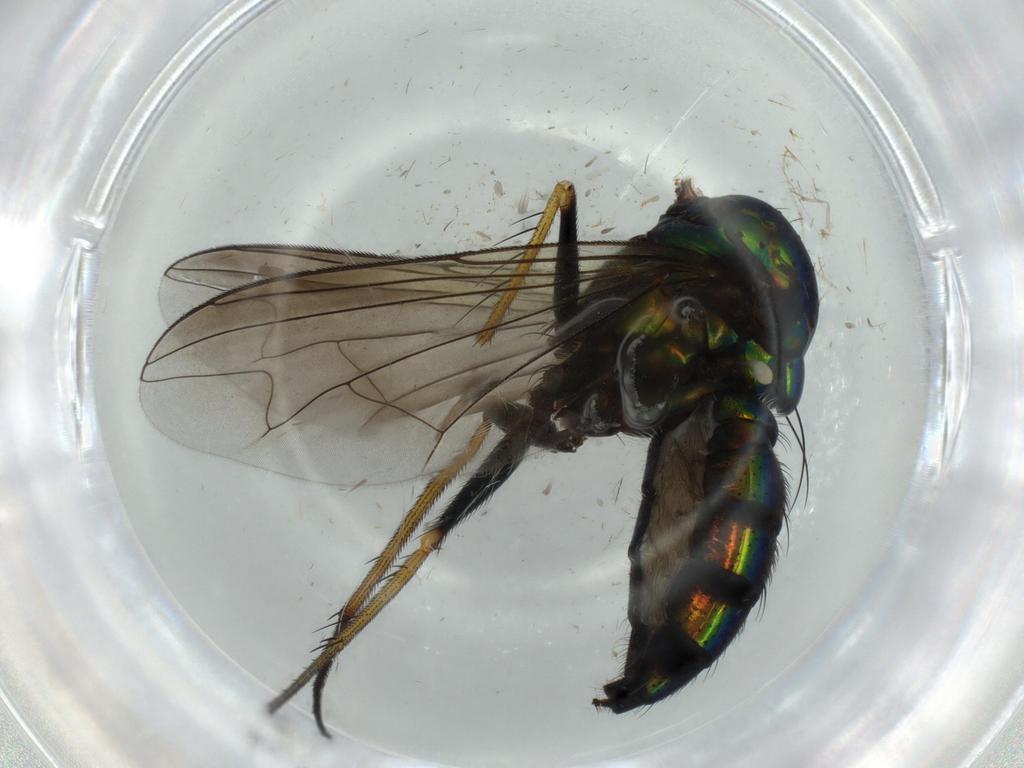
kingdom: Animalia
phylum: Arthropoda
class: Insecta
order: Diptera
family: Dolichopodidae
